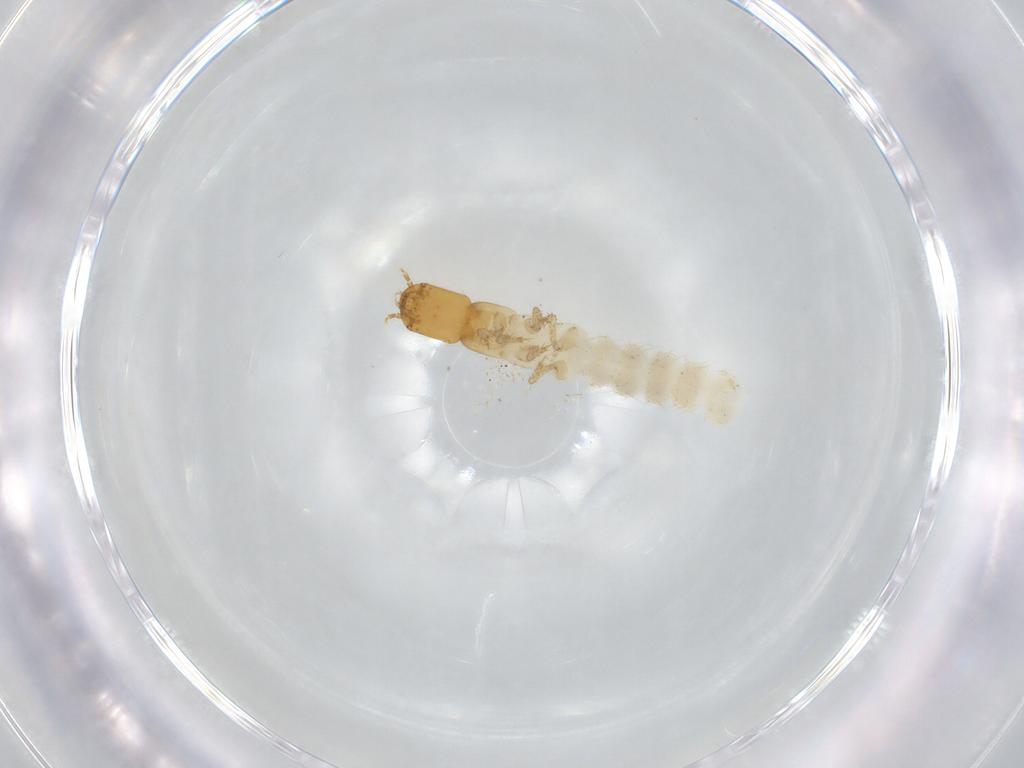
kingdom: Animalia
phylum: Arthropoda
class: Insecta
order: Coleoptera
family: Staphylinidae
